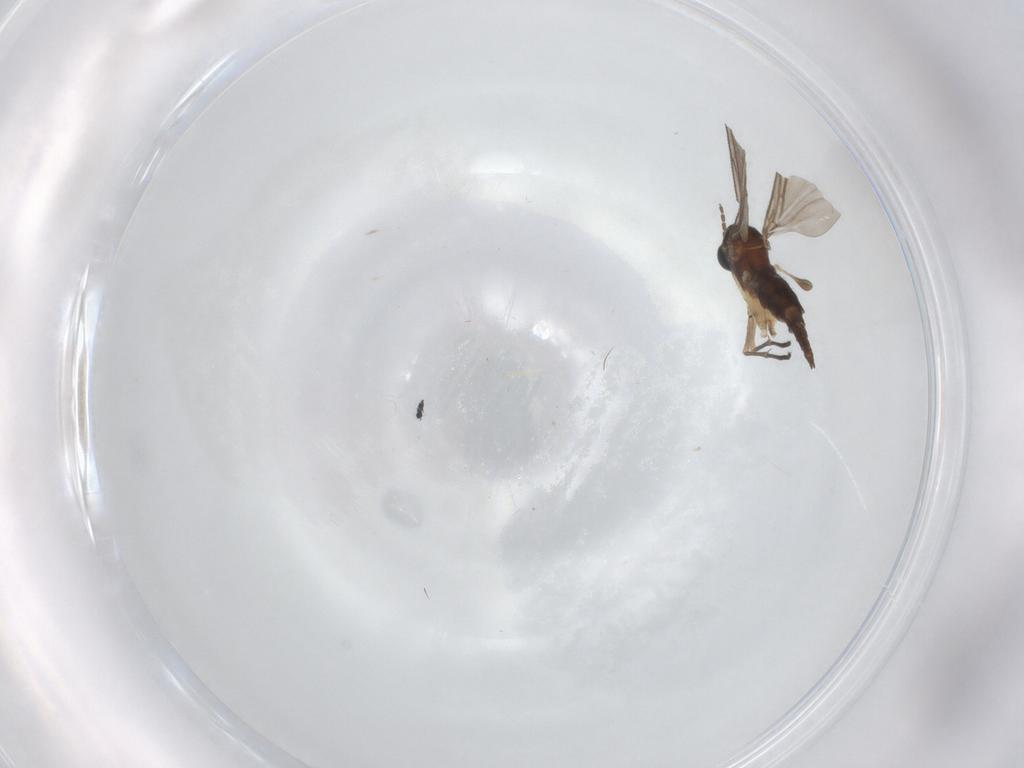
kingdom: Animalia
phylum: Arthropoda
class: Insecta
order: Diptera
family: Sciaridae
